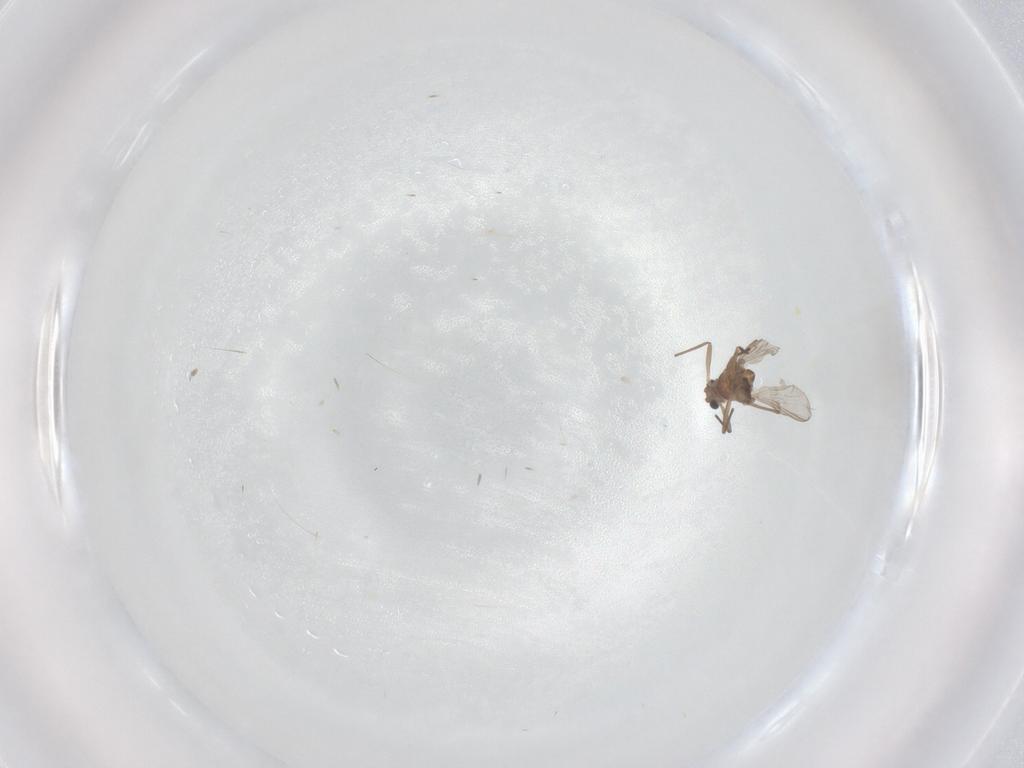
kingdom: Animalia
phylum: Arthropoda
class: Insecta
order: Diptera
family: Chironomidae
